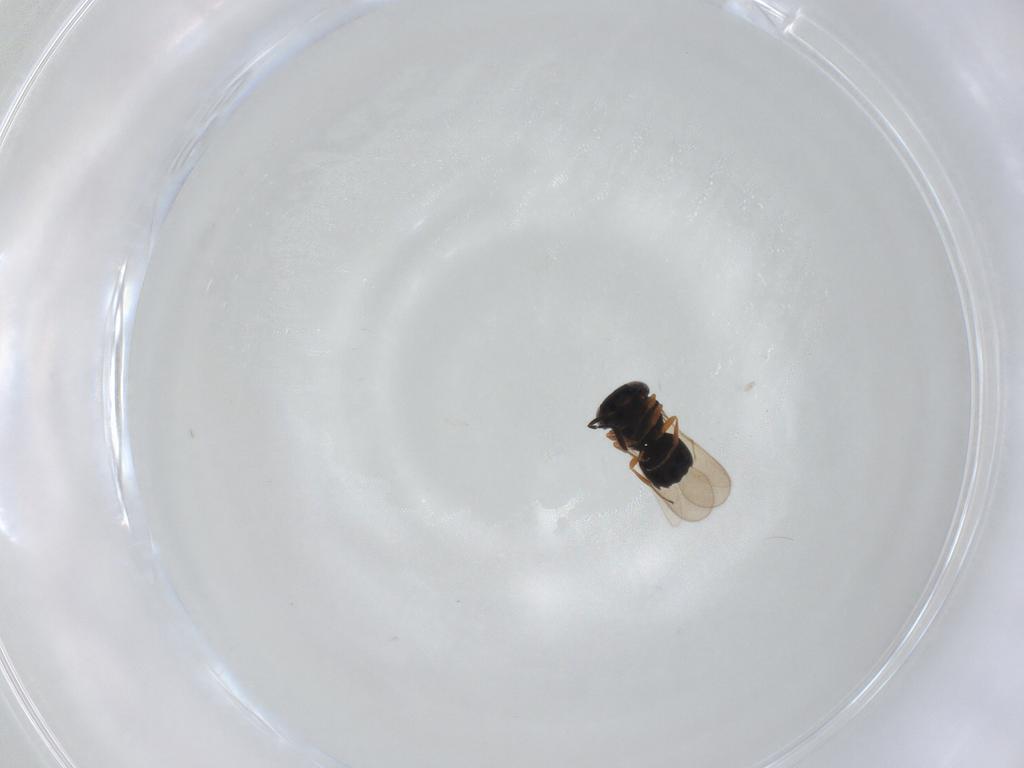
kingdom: Animalia
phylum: Arthropoda
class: Insecta
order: Hymenoptera
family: Scelionidae
